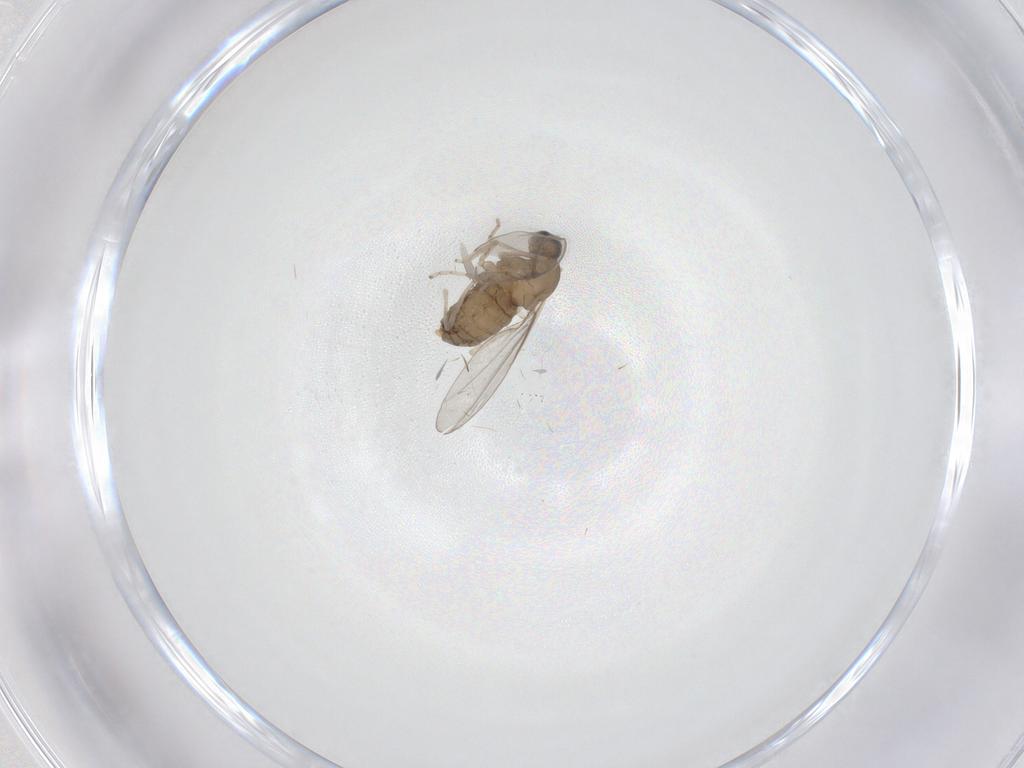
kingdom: Animalia
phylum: Arthropoda
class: Insecta
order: Diptera
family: Cecidomyiidae
